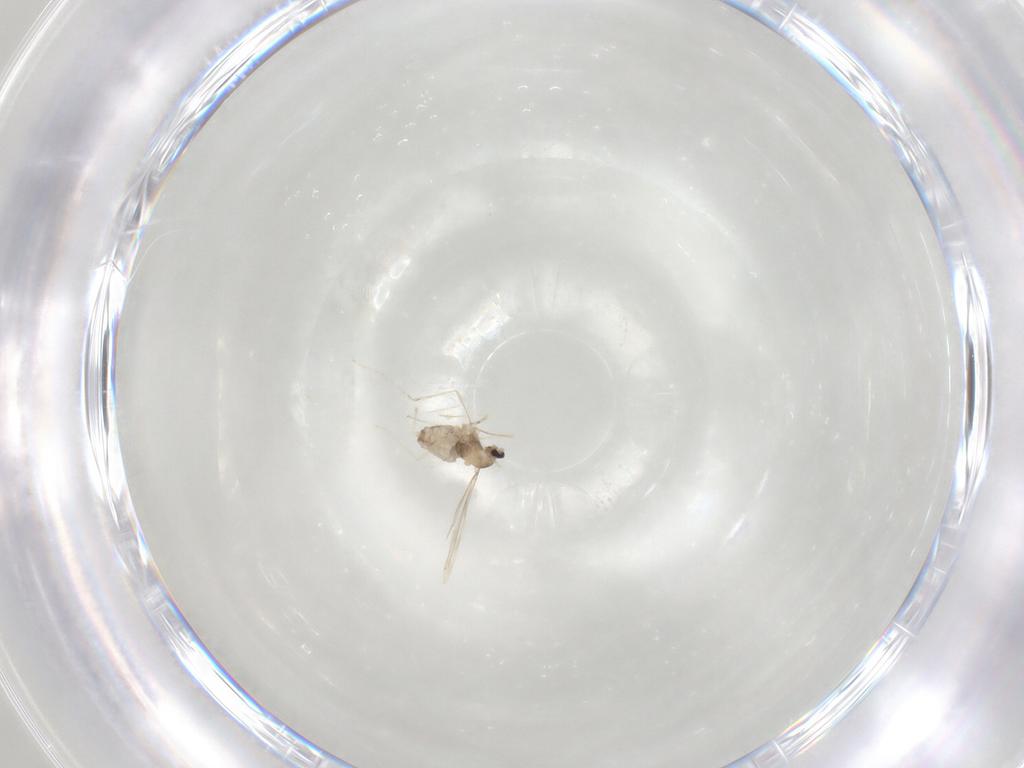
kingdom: Animalia
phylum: Arthropoda
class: Insecta
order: Diptera
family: Cecidomyiidae
